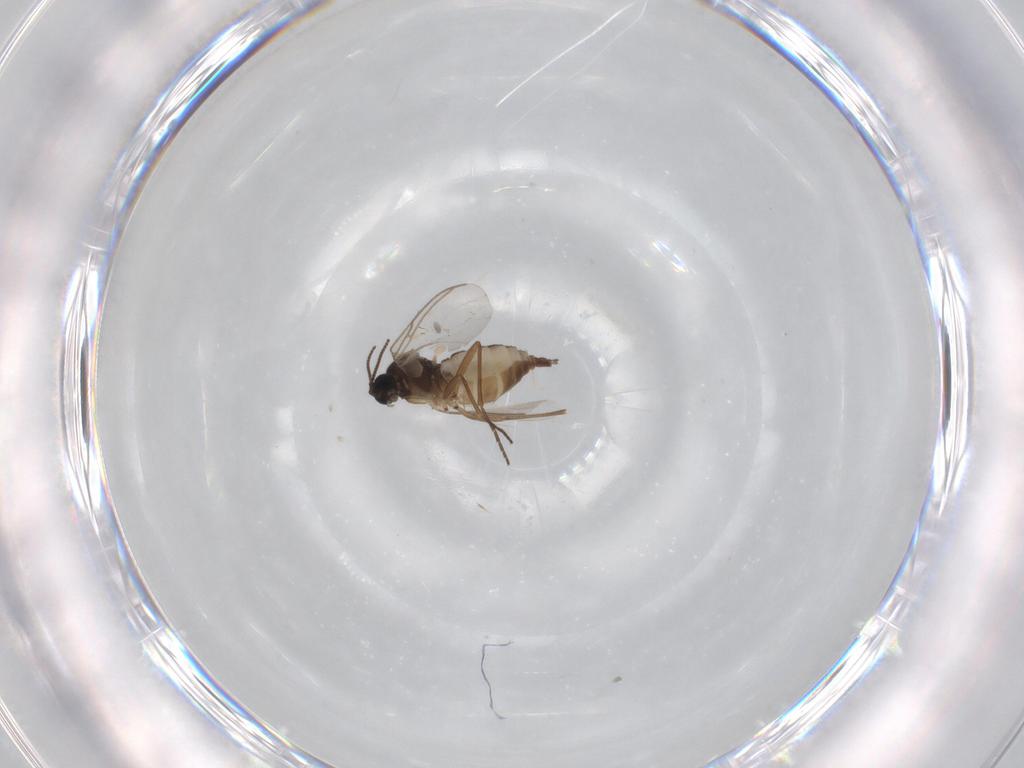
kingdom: Animalia
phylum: Arthropoda
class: Insecta
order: Diptera
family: Sciaridae
